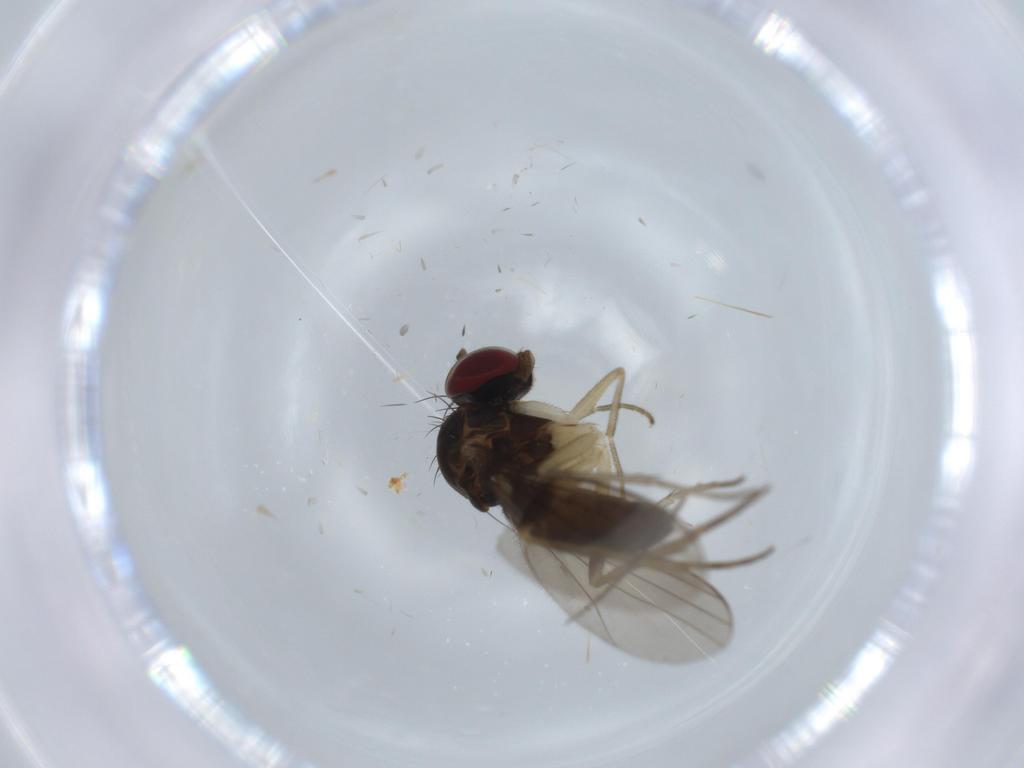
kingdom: Animalia
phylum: Arthropoda
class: Insecta
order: Diptera
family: Dolichopodidae
